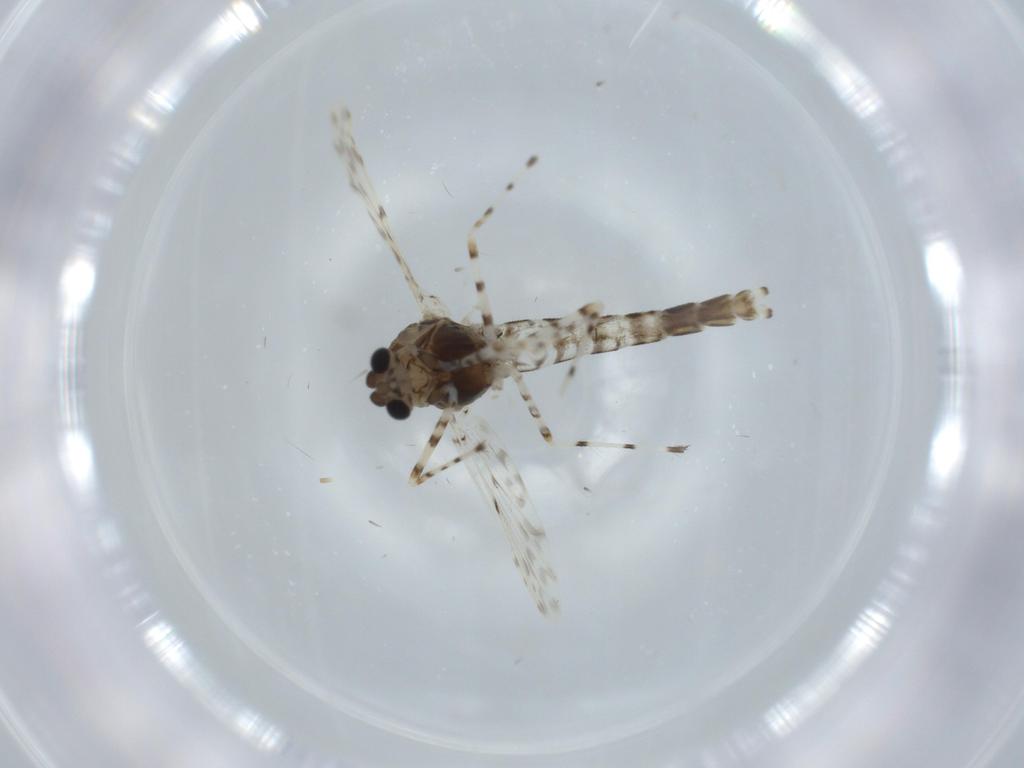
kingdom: Animalia
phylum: Arthropoda
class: Insecta
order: Diptera
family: Chironomidae
